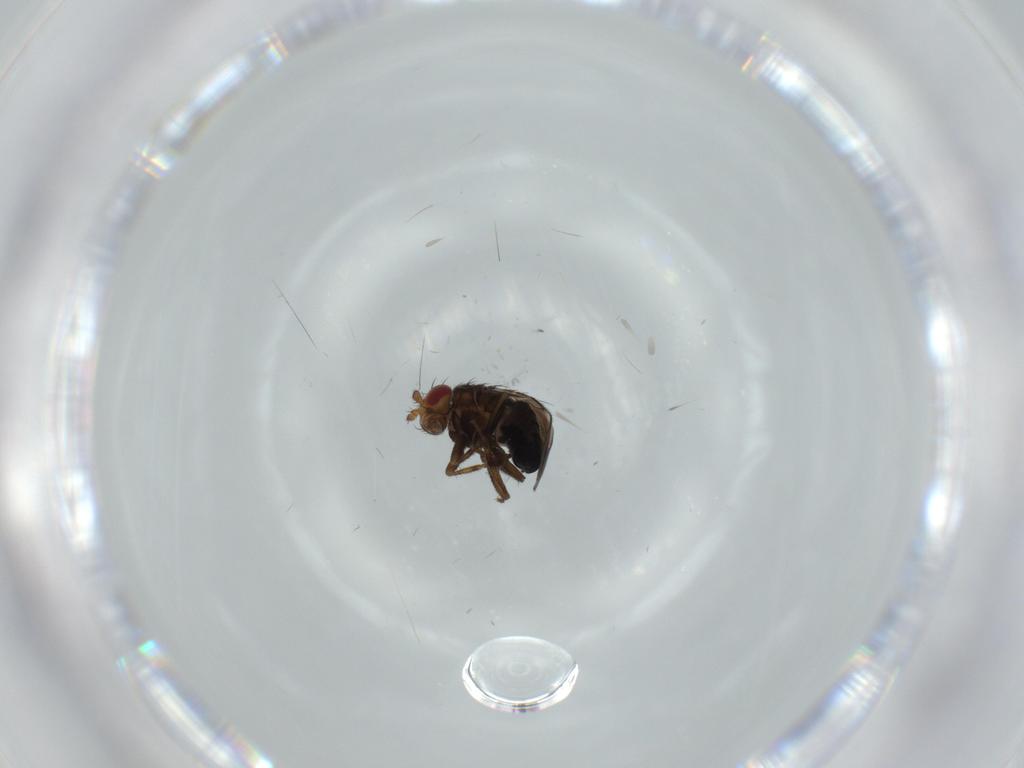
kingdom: Animalia
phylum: Arthropoda
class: Insecta
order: Diptera
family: Sphaeroceridae
